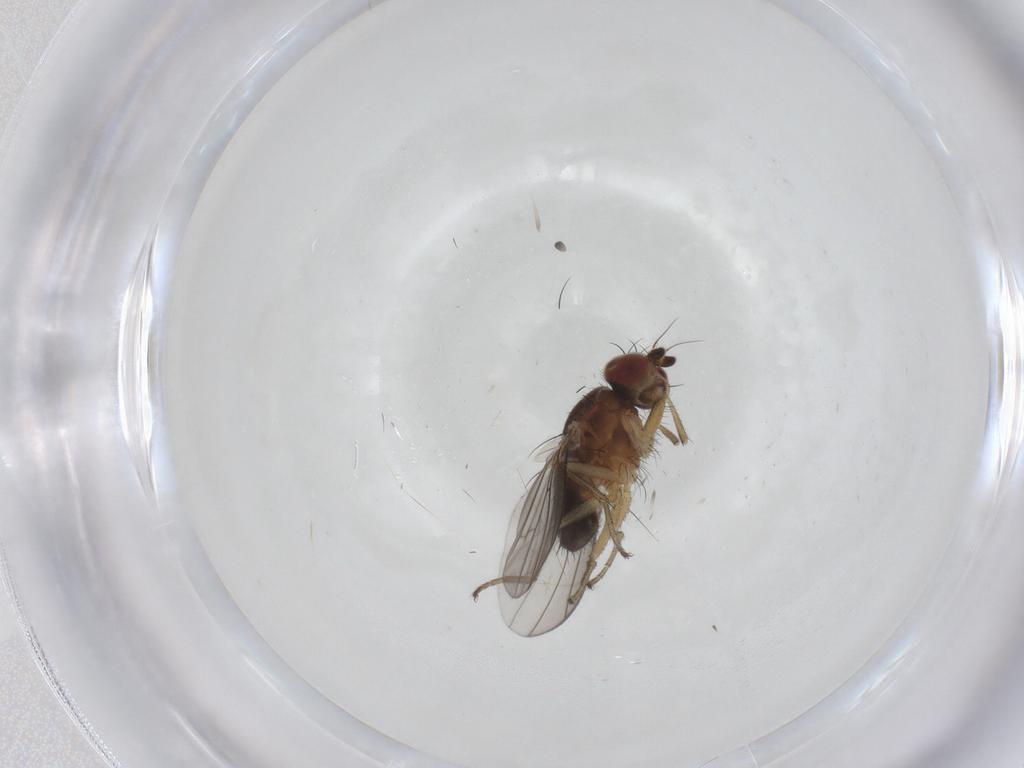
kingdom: Animalia
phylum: Arthropoda
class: Insecta
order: Diptera
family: Heleomyzidae
